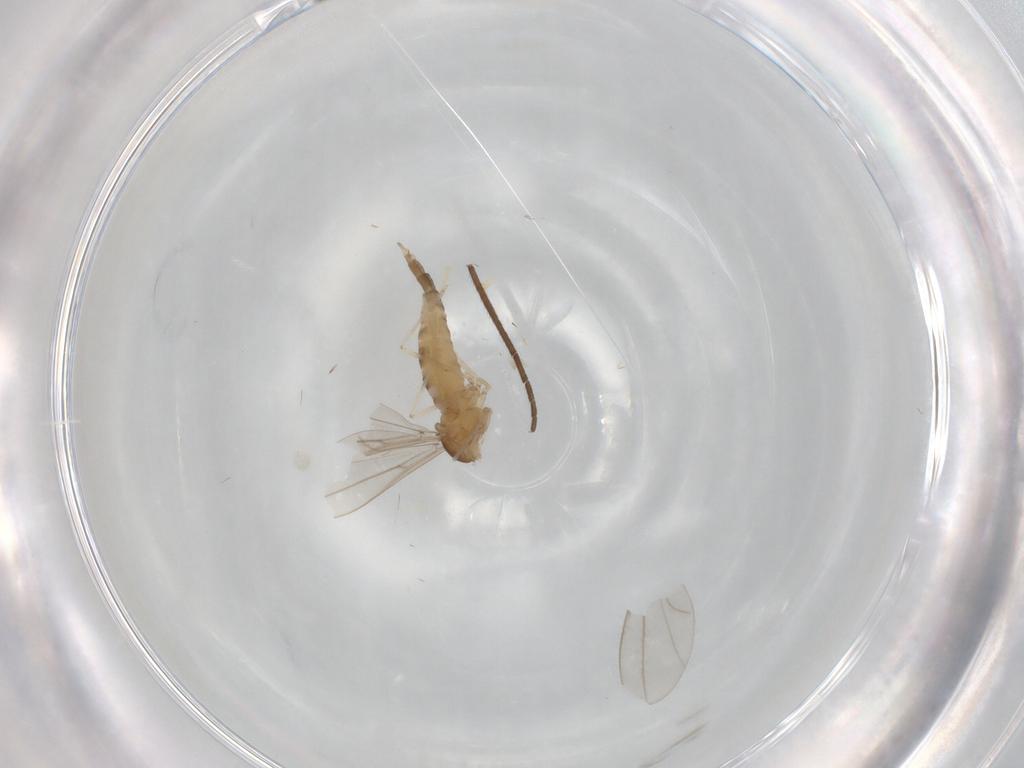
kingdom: Animalia
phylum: Arthropoda
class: Insecta
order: Diptera
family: Cecidomyiidae
